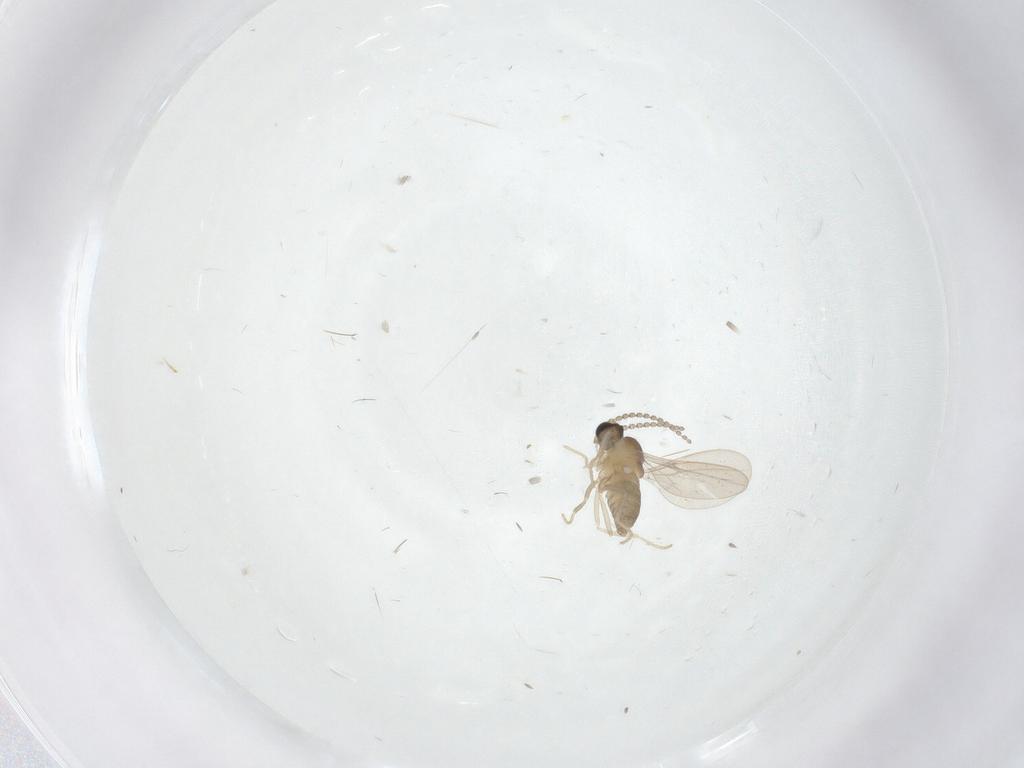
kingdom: Animalia
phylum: Arthropoda
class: Insecta
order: Diptera
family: Cecidomyiidae
